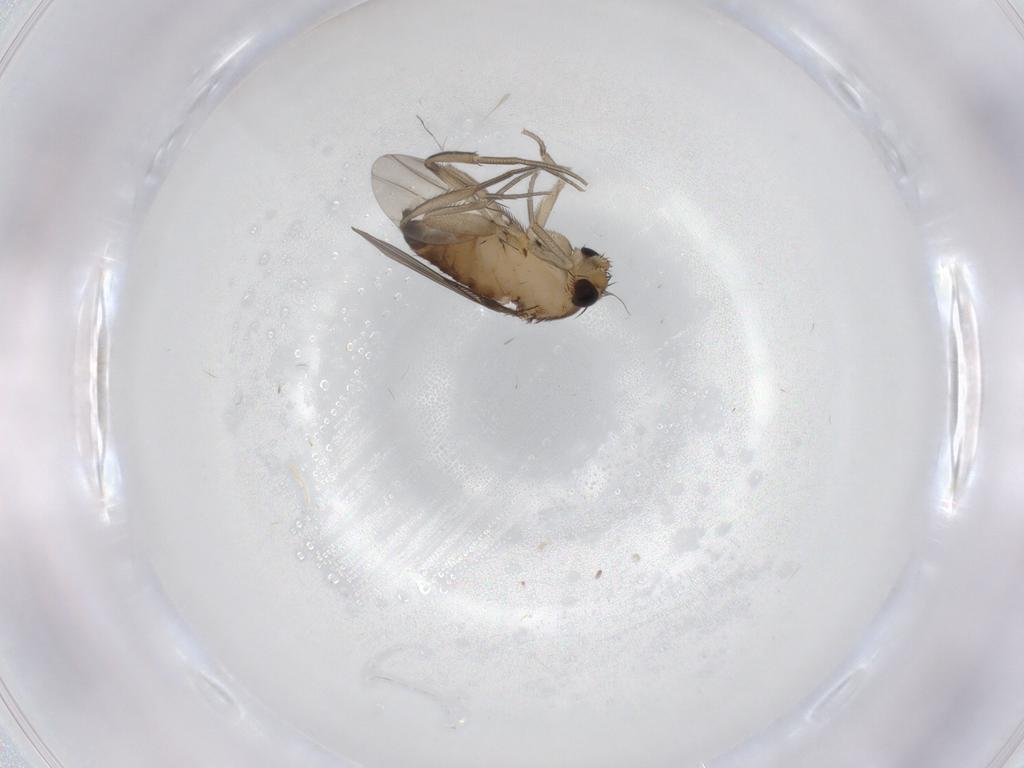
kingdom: Animalia
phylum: Arthropoda
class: Insecta
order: Diptera
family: Phoridae
